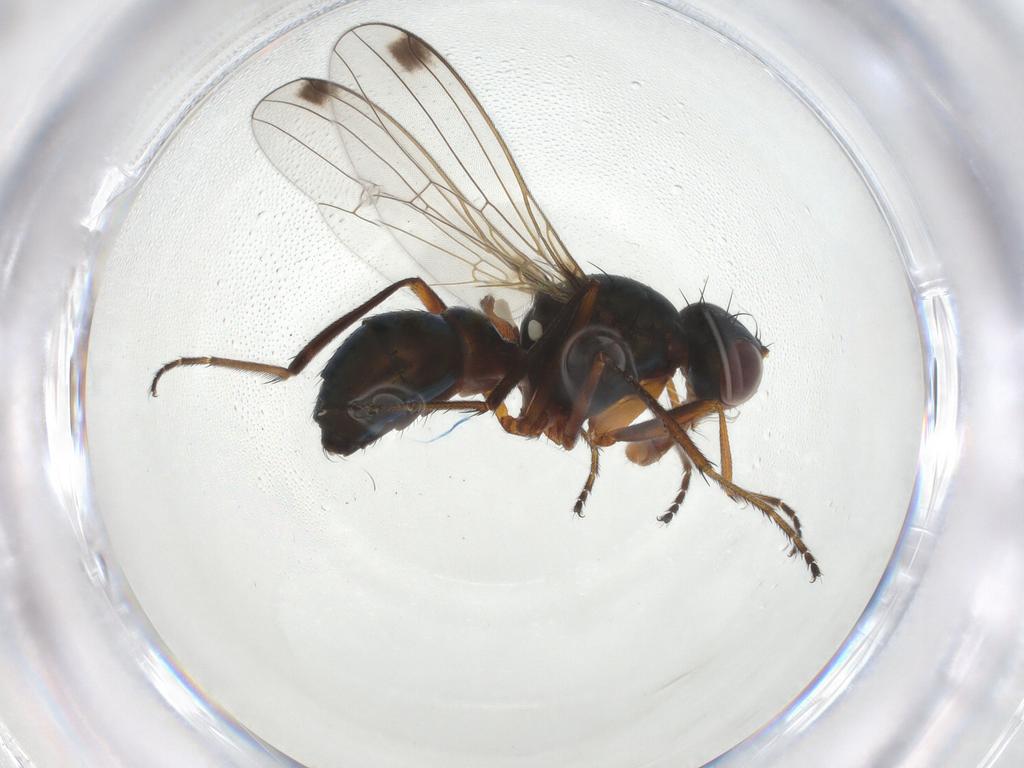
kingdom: Animalia
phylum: Arthropoda
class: Insecta
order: Diptera
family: Sepsidae
